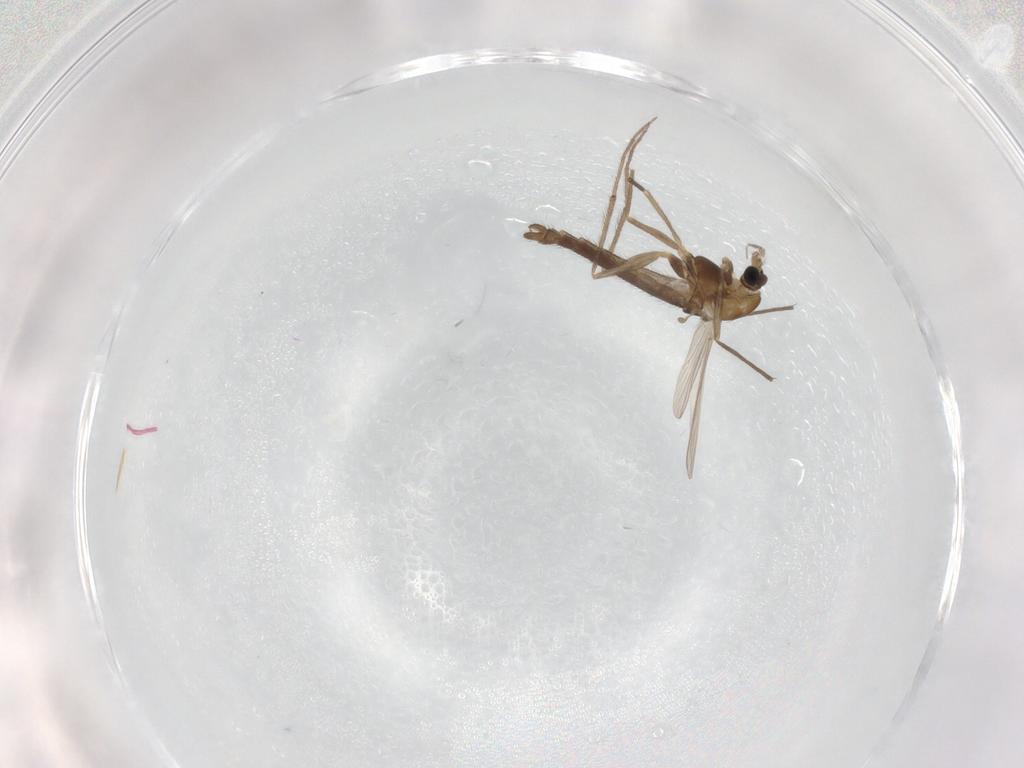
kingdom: Animalia
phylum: Arthropoda
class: Insecta
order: Diptera
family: Chironomidae
